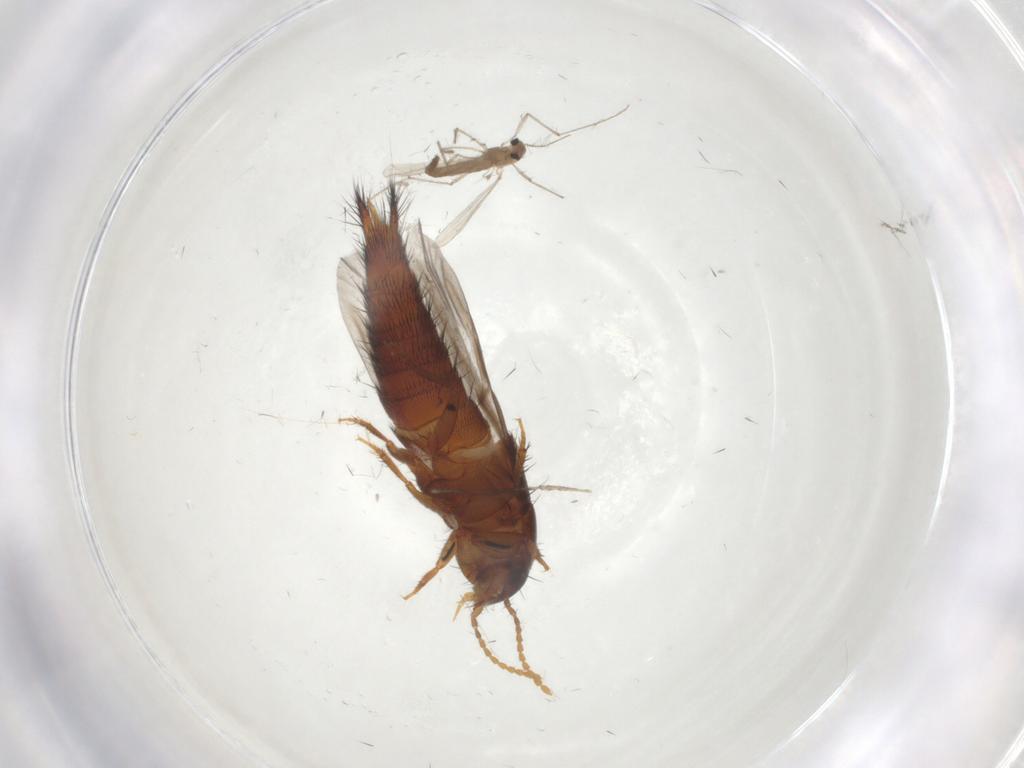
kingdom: Animalia
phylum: Arthropoda
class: Insecta
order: Diptera
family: Chironomidae
